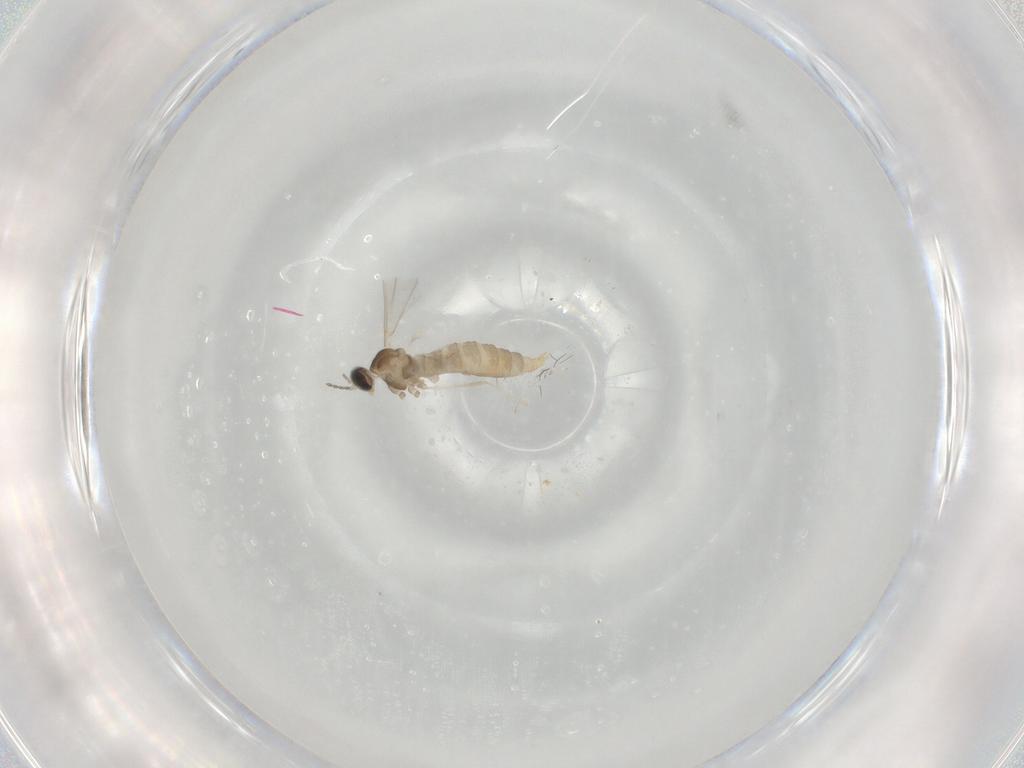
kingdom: Animalia
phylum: Arthropoda
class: Insecta
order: Diptera
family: Cecidomyiidae
